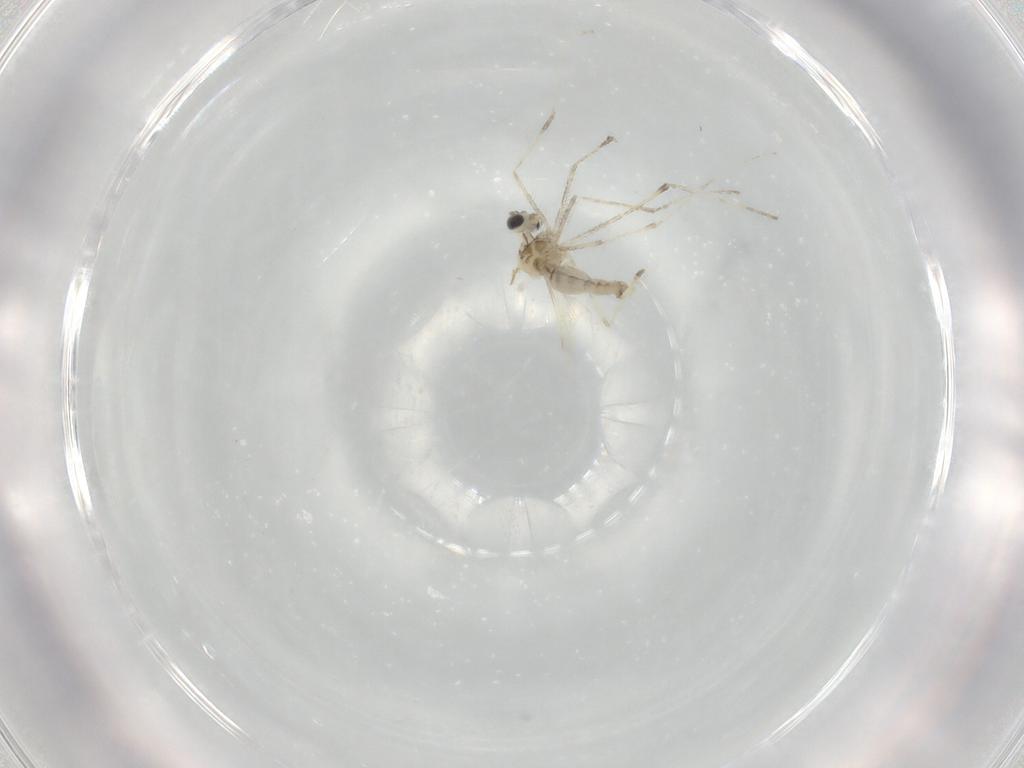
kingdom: Animalia
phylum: Arthropoda
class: Insecta
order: Diptera
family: Cecidomyiidae
